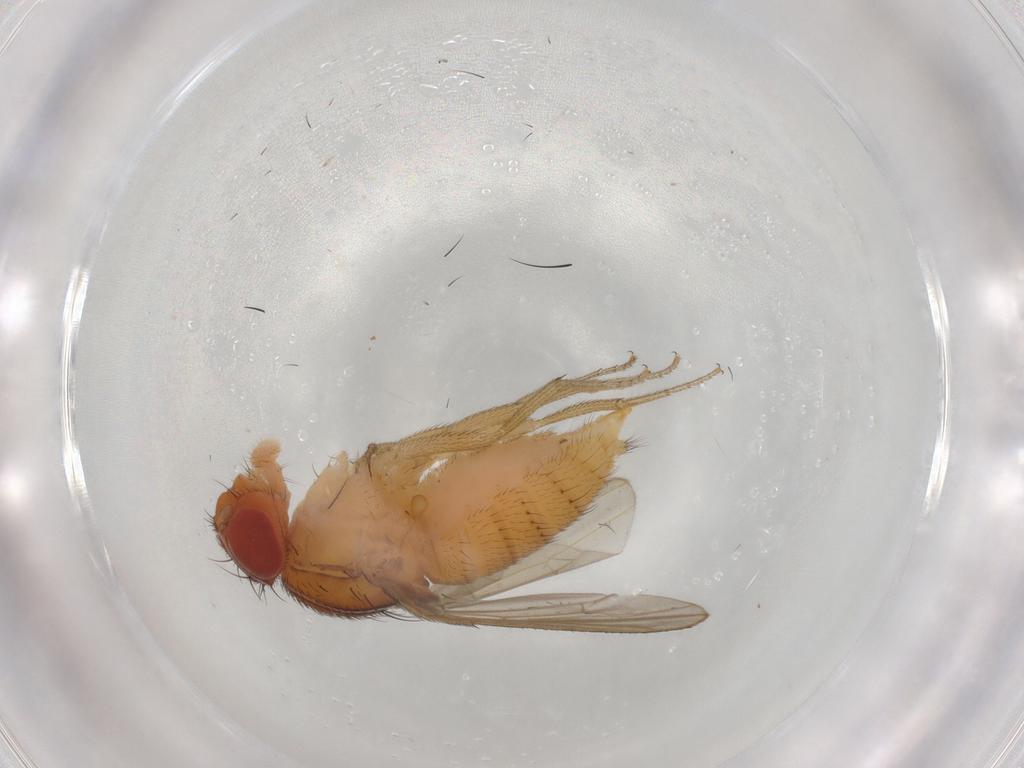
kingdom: Animalia
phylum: Arthropoda
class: Insecta
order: Diptera
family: Drosophilidae
